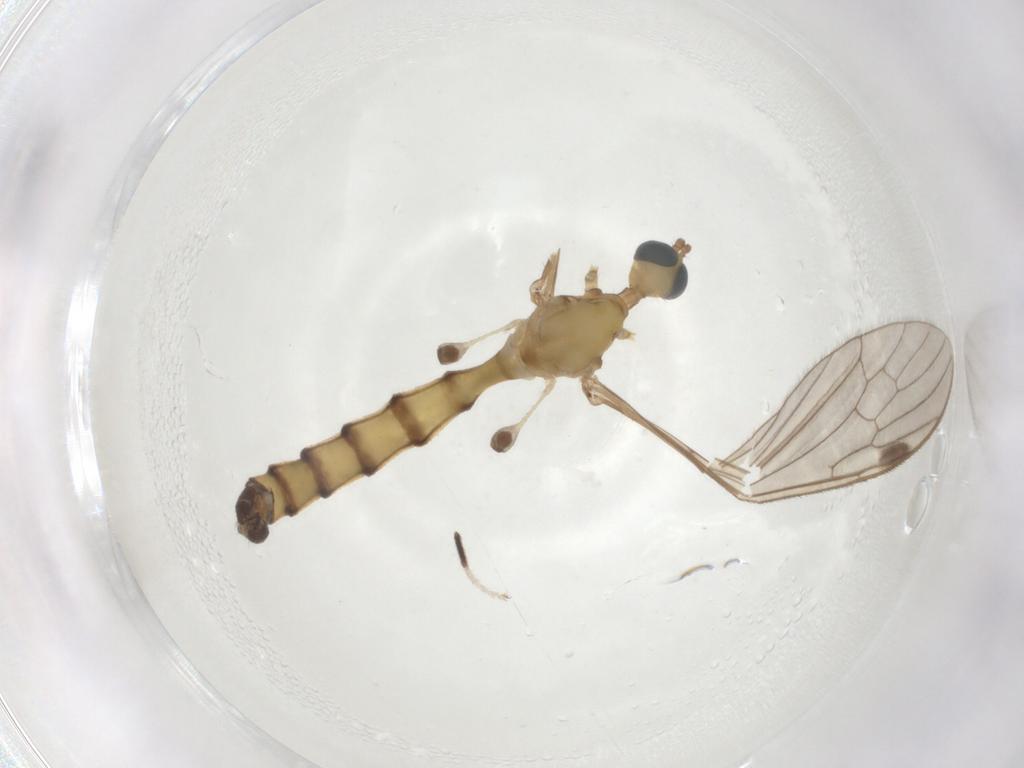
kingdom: Animalia
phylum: Arthropoda
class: Insecta
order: Diptera
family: Limoniidae
